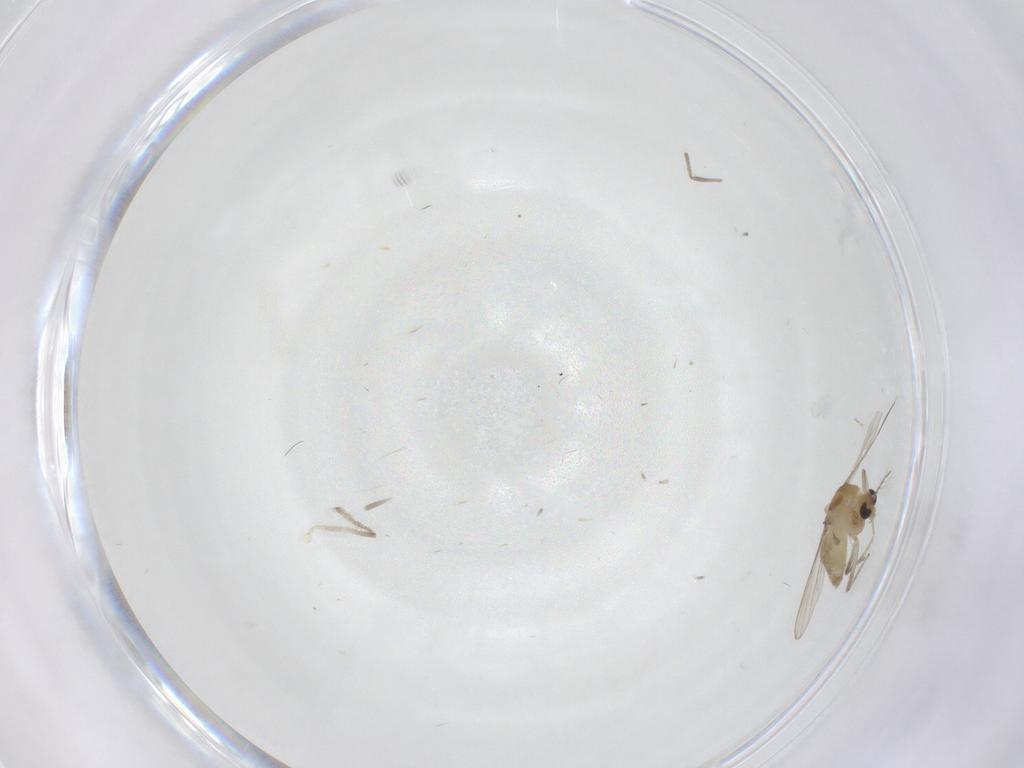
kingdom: Animalia
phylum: Arthropoda
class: Insecta
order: Diptera
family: Chironomidae
